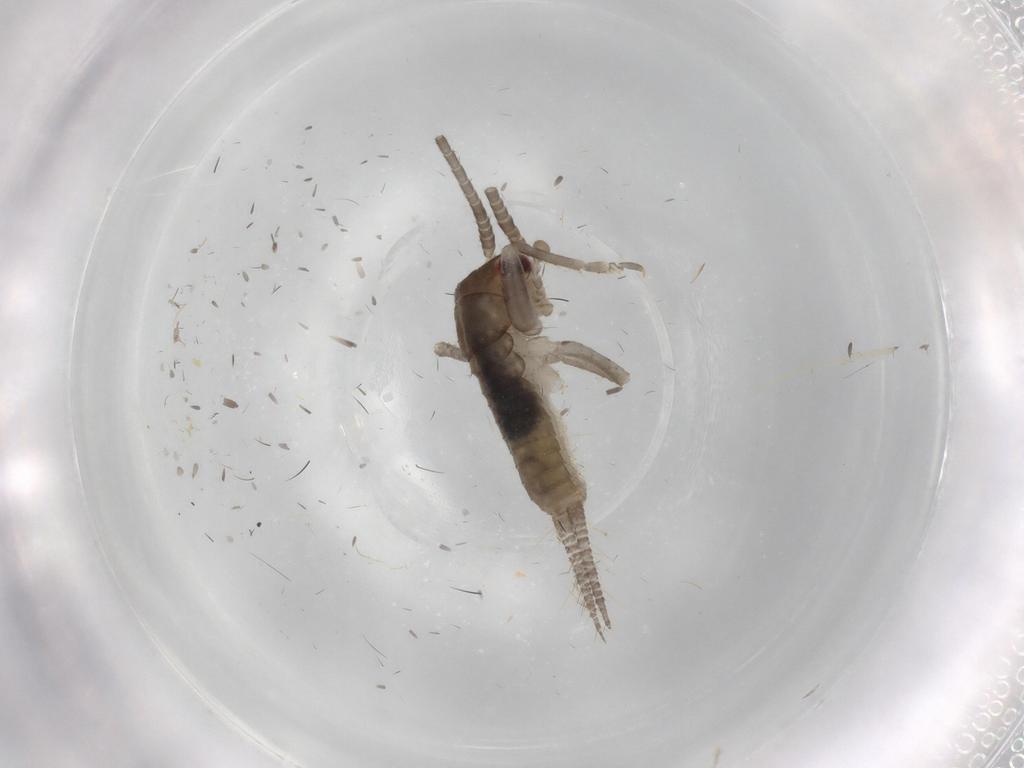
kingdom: Animalia
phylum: Arthropoda
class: Insecta
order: Orthoptera
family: Gryllidae
